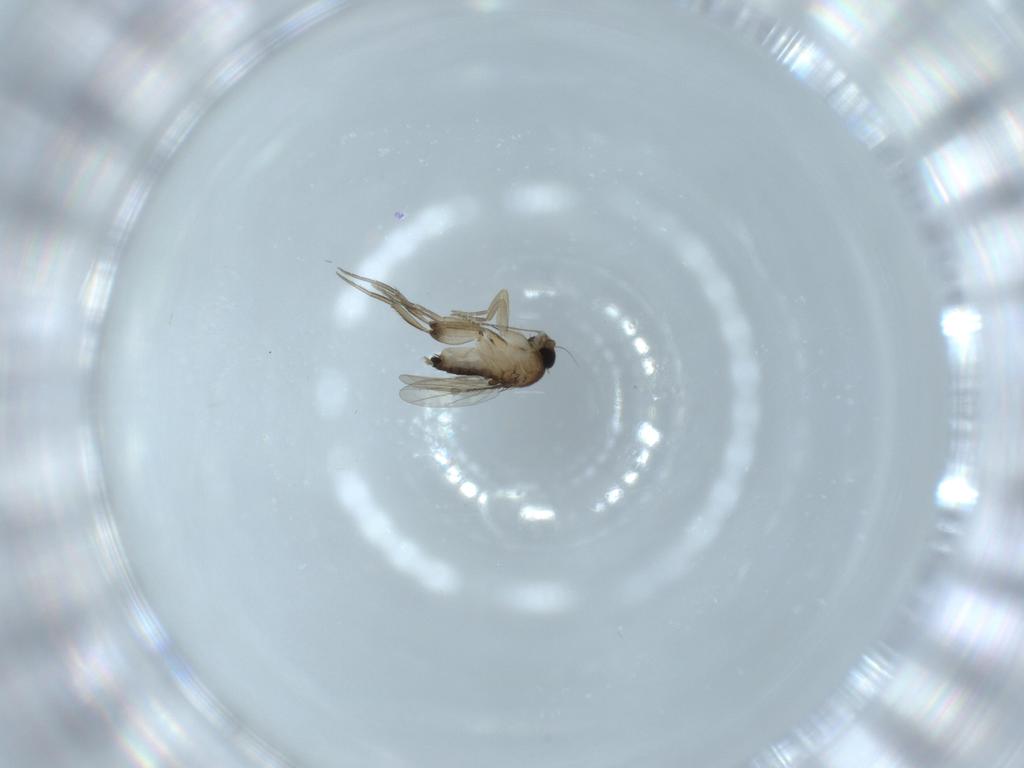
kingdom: Animalia
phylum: Arthropoda
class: Insecta
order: Diptera
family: Phoridae
